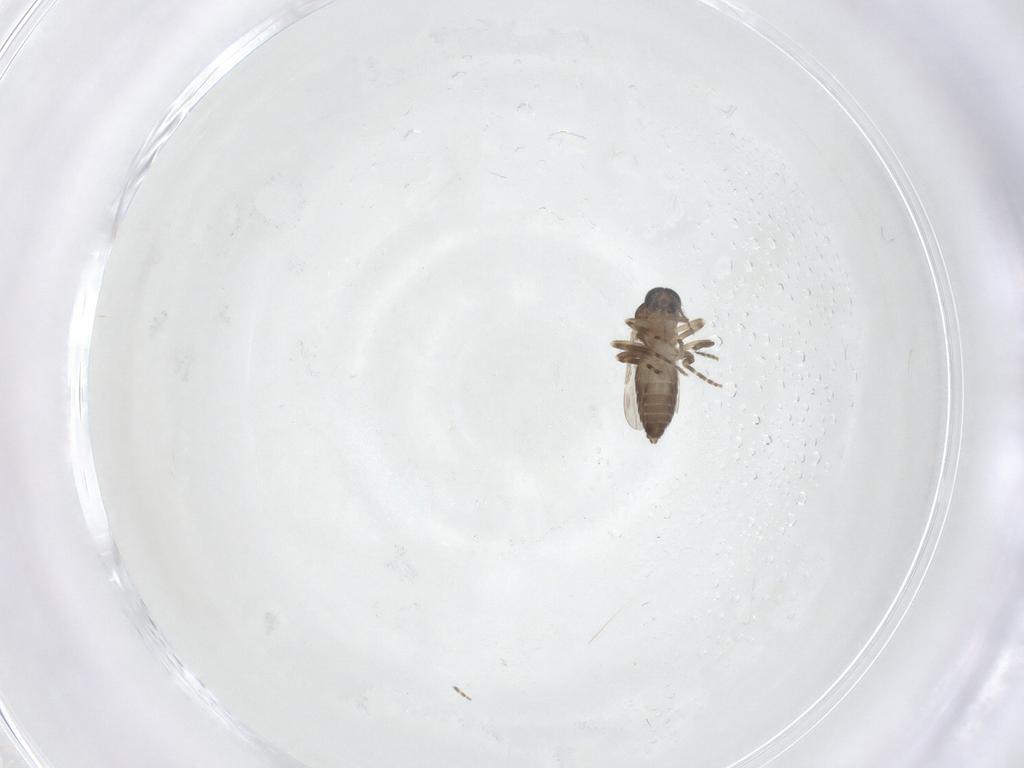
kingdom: Animalia
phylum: Arthropoda
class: Insecta
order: Diptera
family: Ceratopogonidae
